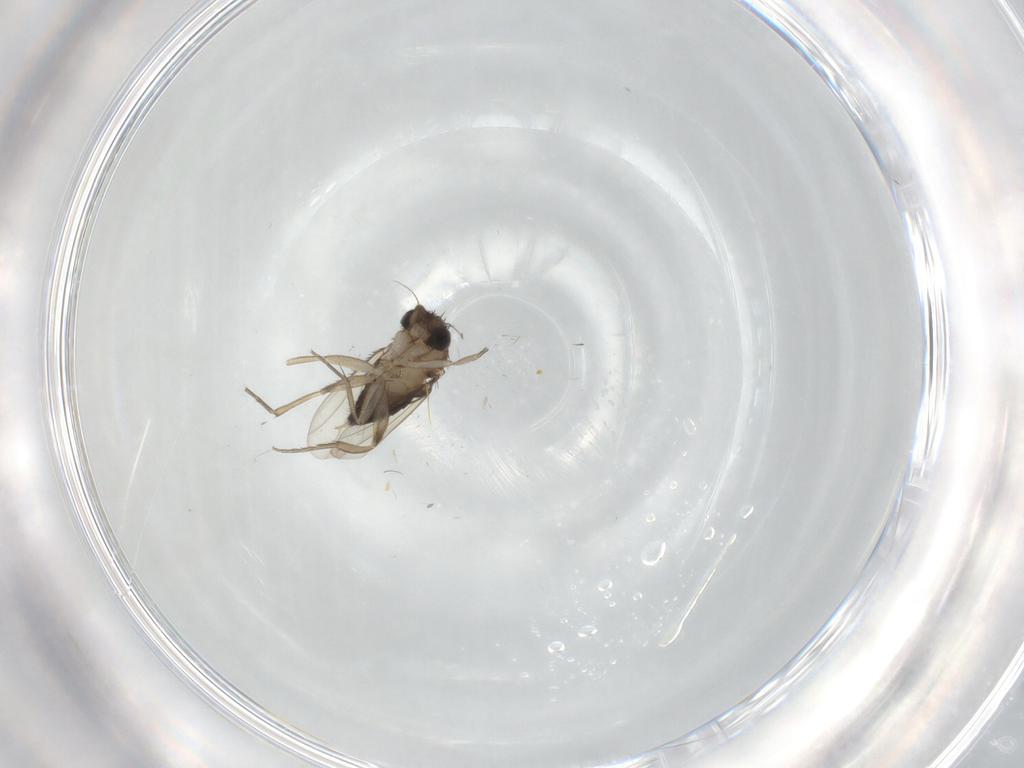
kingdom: Animalia
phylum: Arthropoda
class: Insecta
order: Diptera
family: Phoridae
